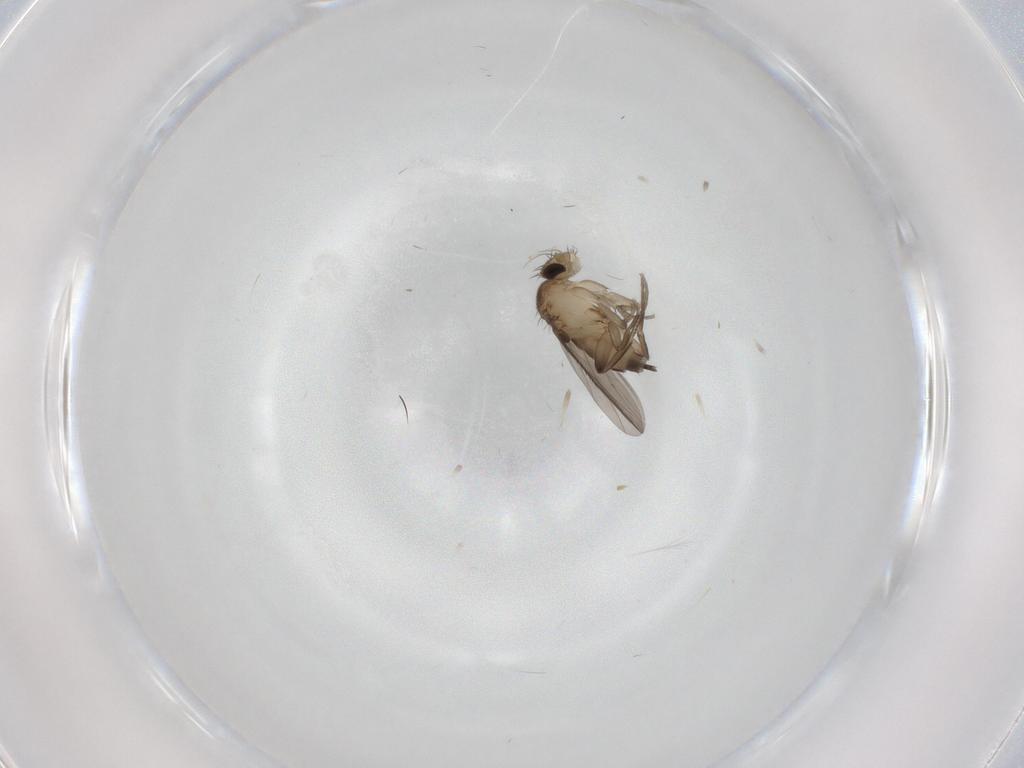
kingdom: Animalia
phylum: Arthropoda
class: Insecta
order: Diptera
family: Phoridae
